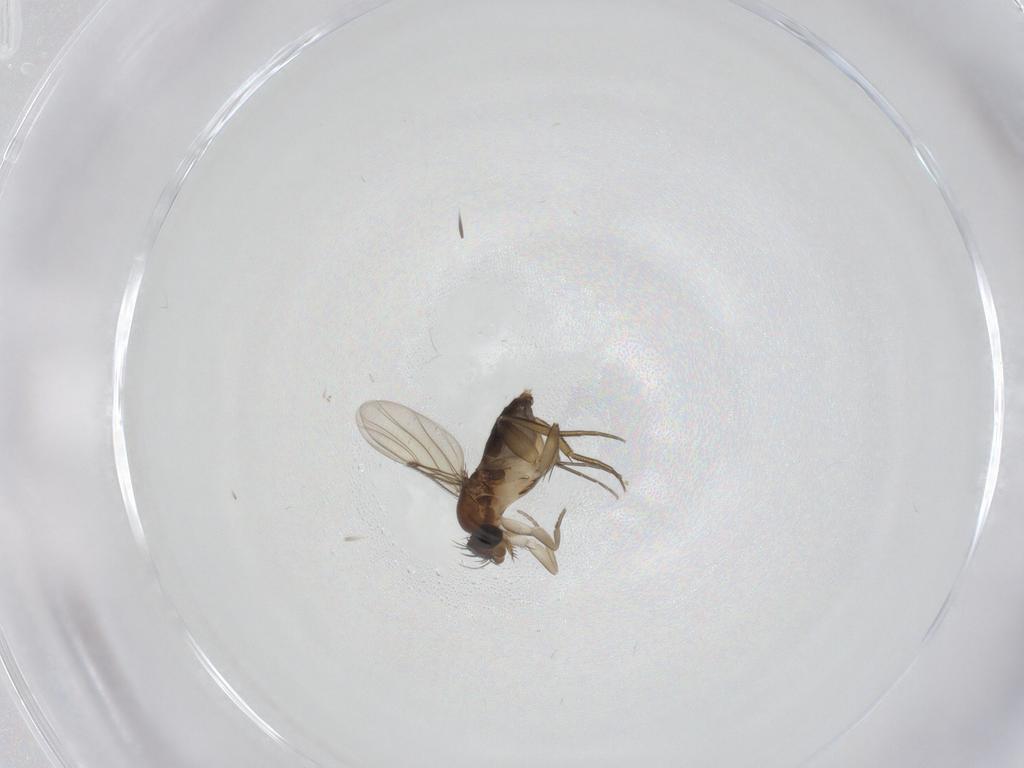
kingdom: Animalia
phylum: Arthropoda
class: Insecta
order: Diptera
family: Phoridae
